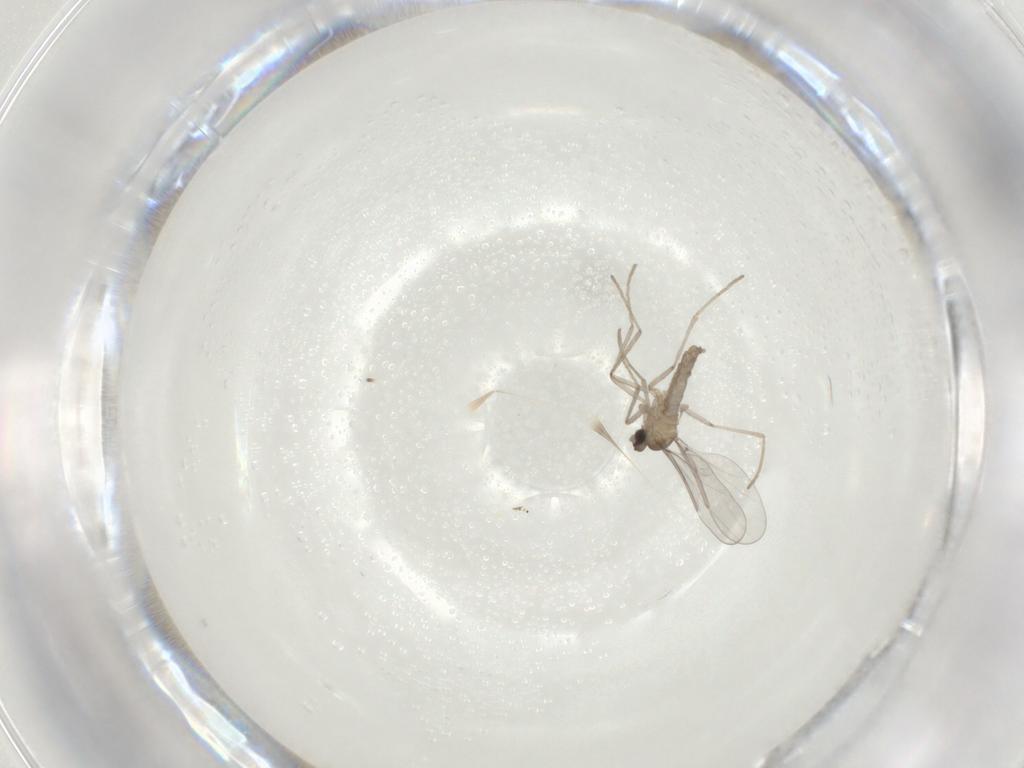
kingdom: Animalia
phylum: Arthropoda
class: Insecta
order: Diptera
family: Cecidomyiidae
